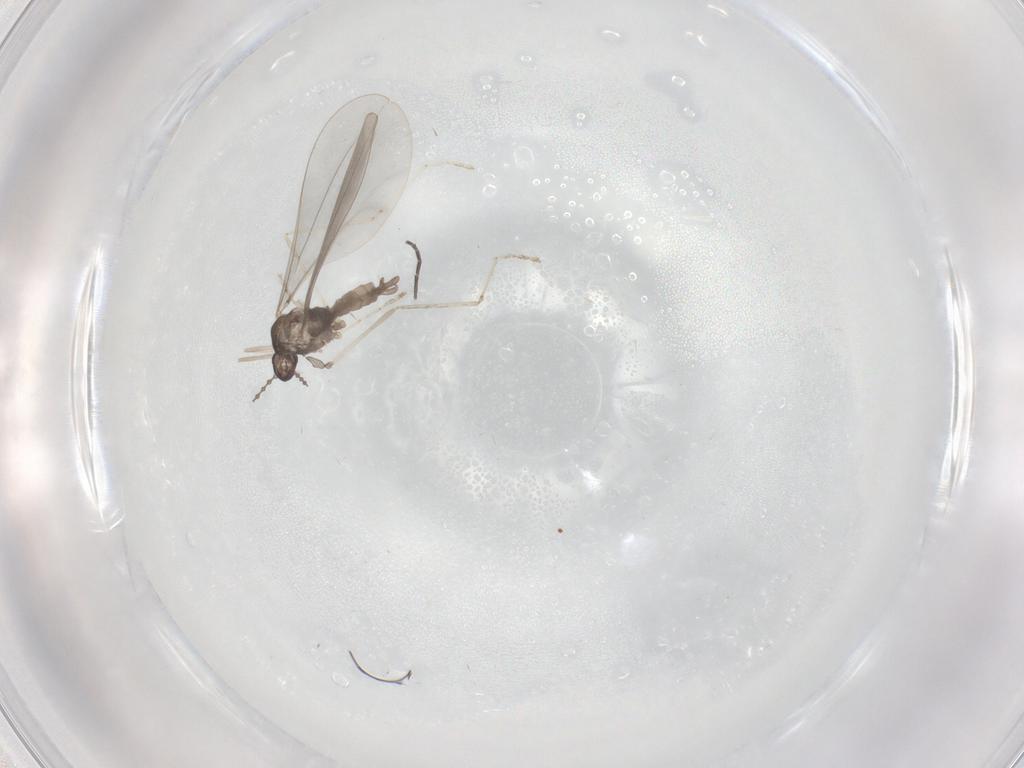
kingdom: Animalia
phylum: Arthropoda
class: Insecta
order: Diptera
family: Cecidomyiidae
